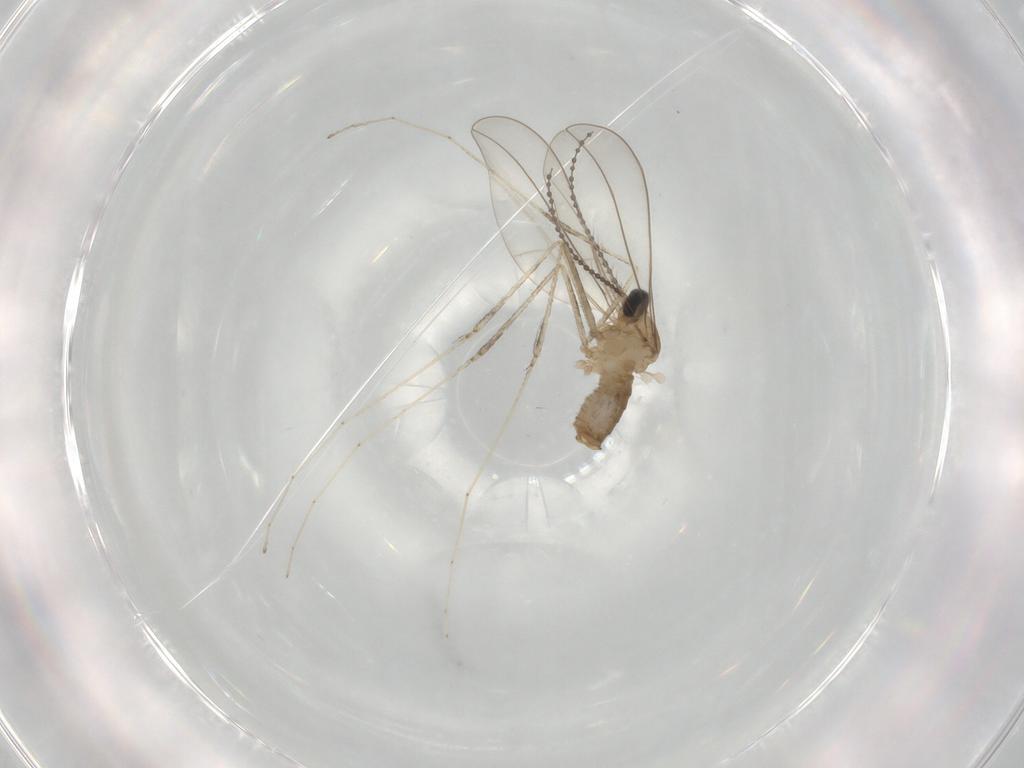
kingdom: Animalia
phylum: Arthropoda
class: Insecta
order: Diptera
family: Cecidomyiidae
